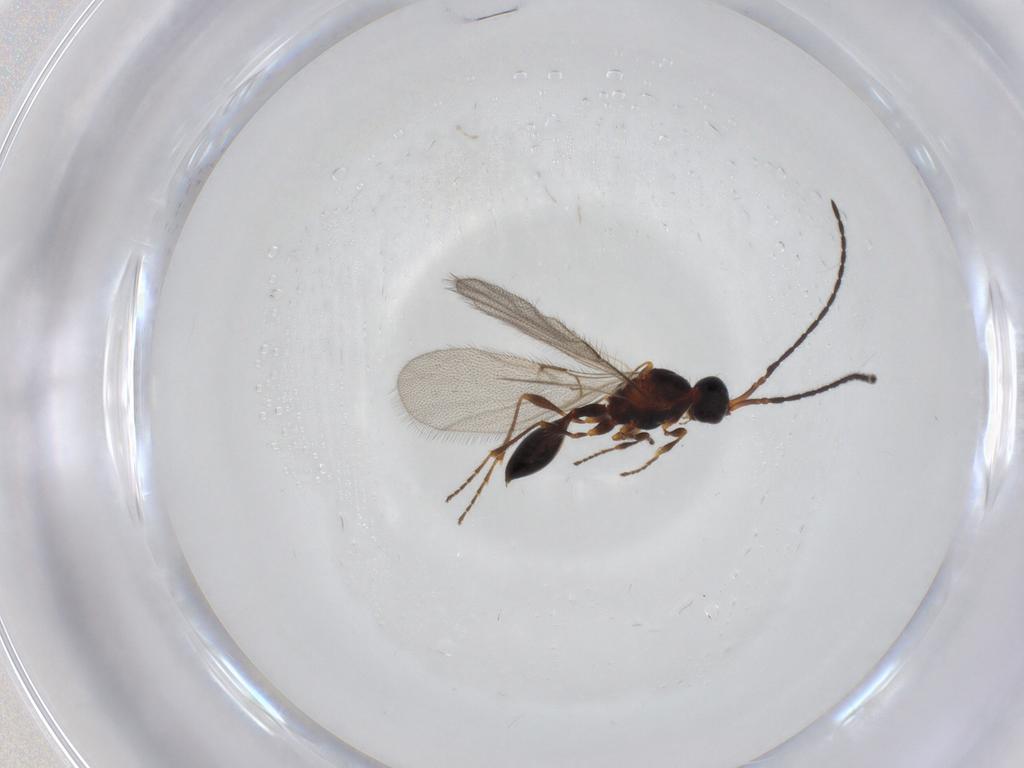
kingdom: Animalia
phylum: Arthropoda
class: Insecta
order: Hymenoptera
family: Diapriidae
